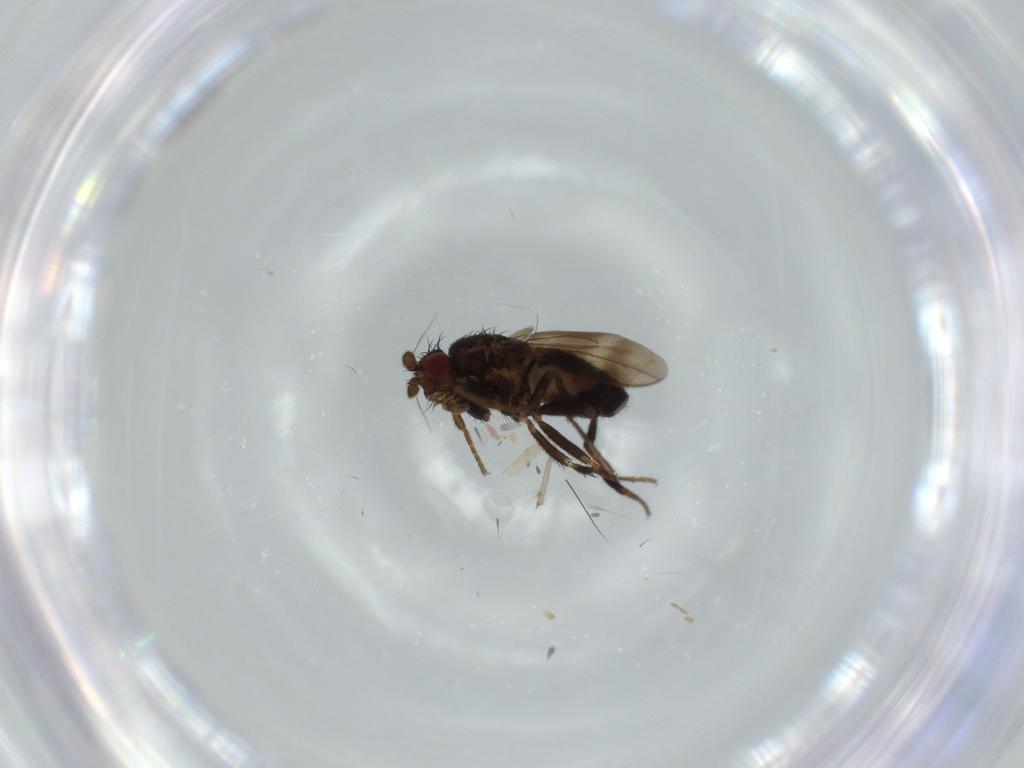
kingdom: Animalia
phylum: Arthropoda
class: Insecta
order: Diptera
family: Sphaeroceridae
